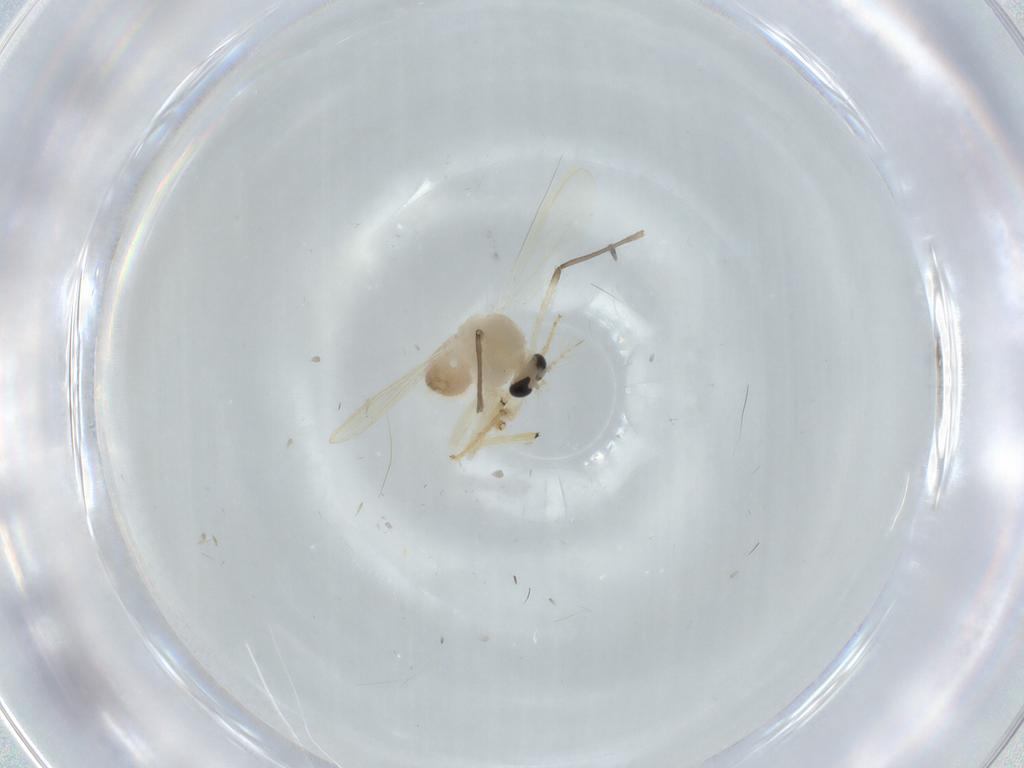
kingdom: Animalia
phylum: Arthropoda
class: Insecta
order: Diptera
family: Chironomidae
